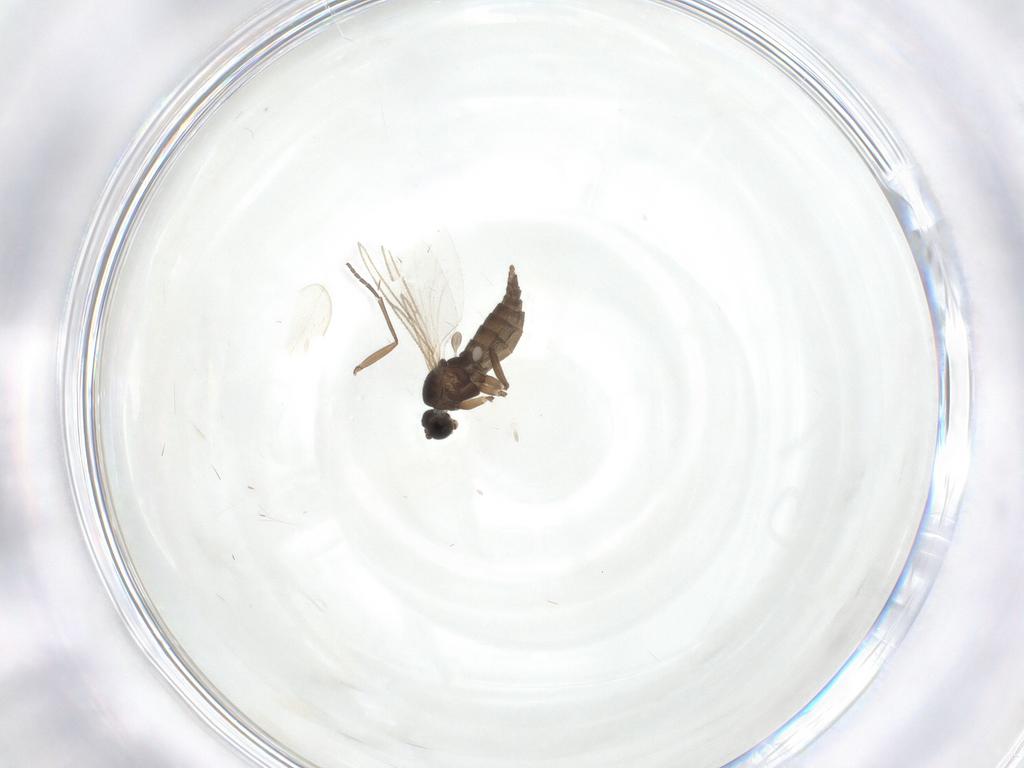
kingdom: Animalia
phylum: Arthropoda
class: Insecta
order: Diptera
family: Sciaridae
